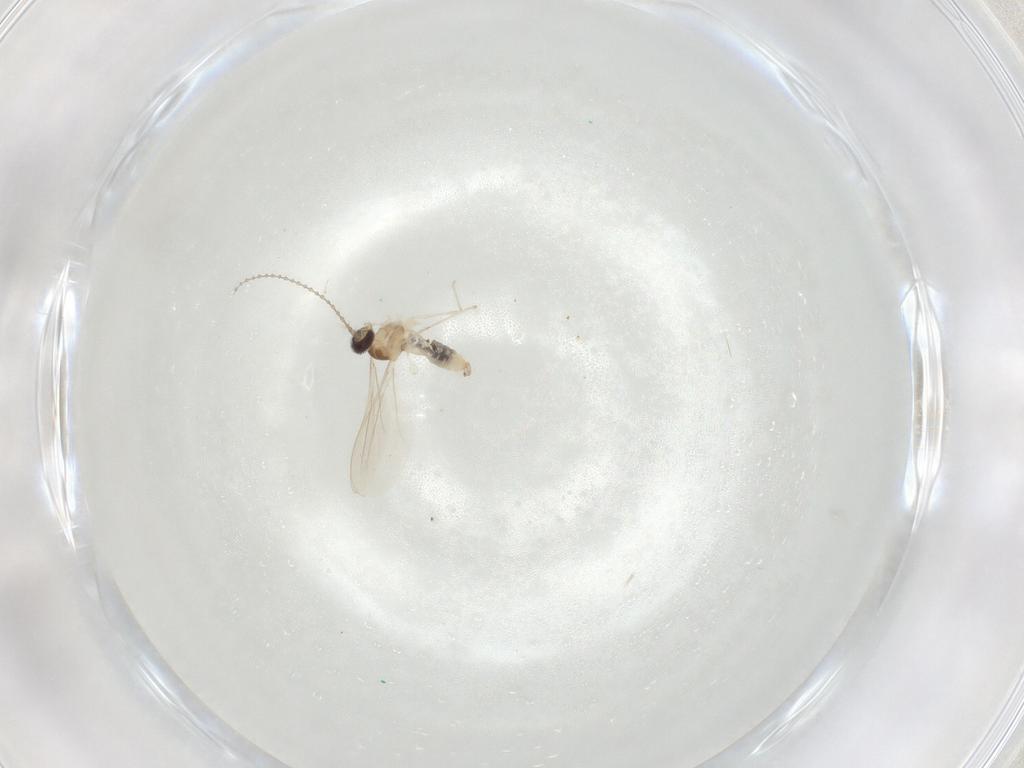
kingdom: Animalia
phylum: Arthropoda
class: Insecta
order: Diptera
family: Cecidomyiidae
